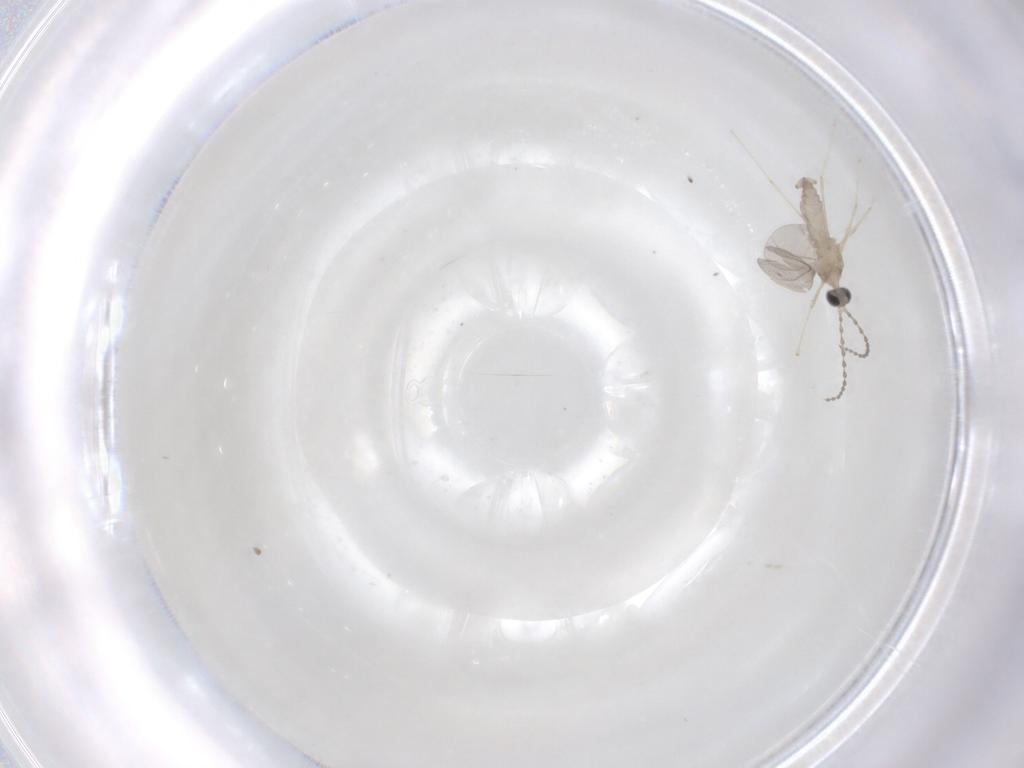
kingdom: Animalia
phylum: Arthropoda
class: Insecta
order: Diptera
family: Cecidomyiidae
